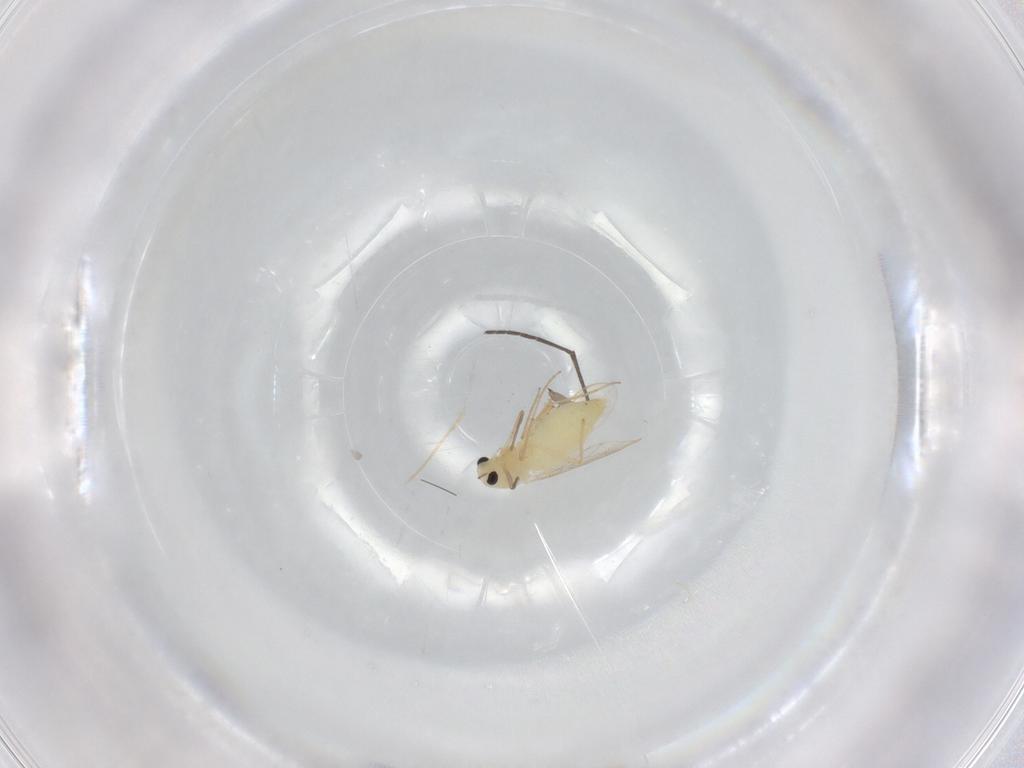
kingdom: Animalia
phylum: Arthropoda
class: Insecta
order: Diptera
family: Chironomidae
